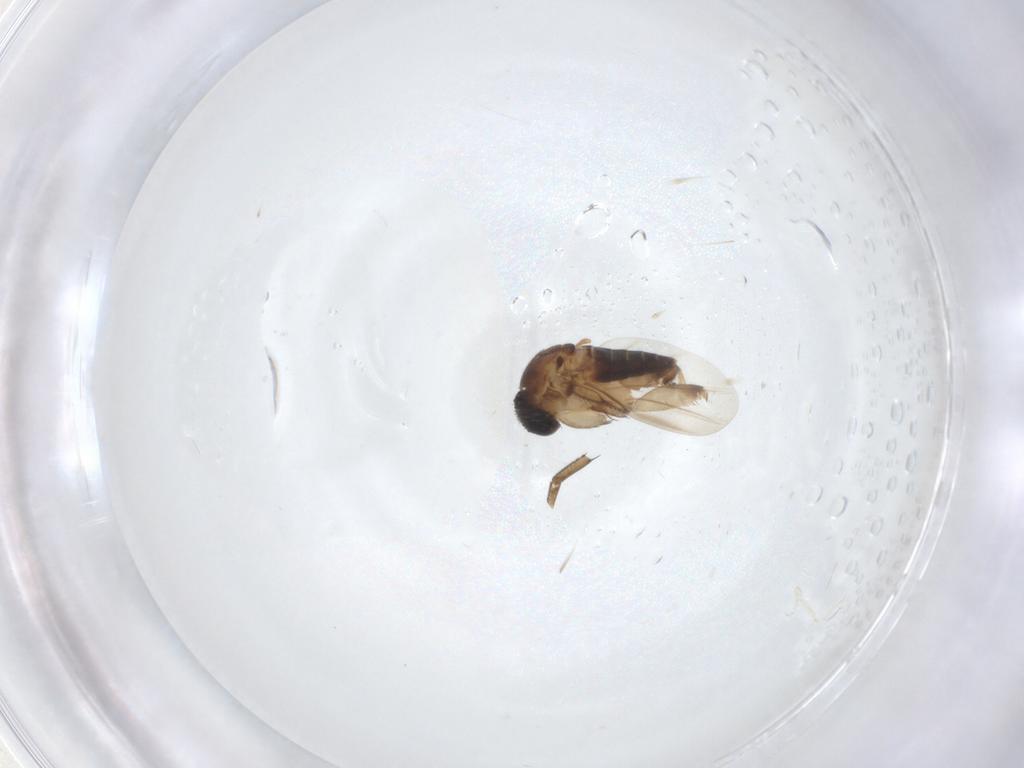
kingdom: Animalia
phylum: Arthropoda
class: Insecta
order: Diptera
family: Phoridae
